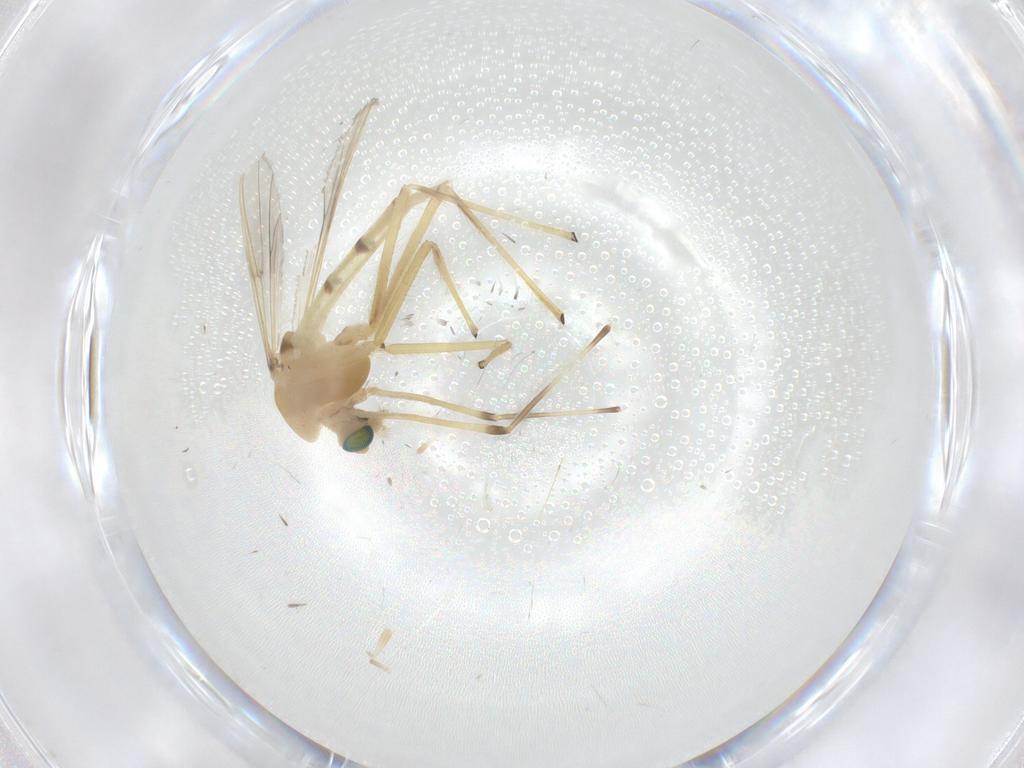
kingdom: Animalia
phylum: Arthropoda
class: Insecta
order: Diptera
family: Chironomidae
